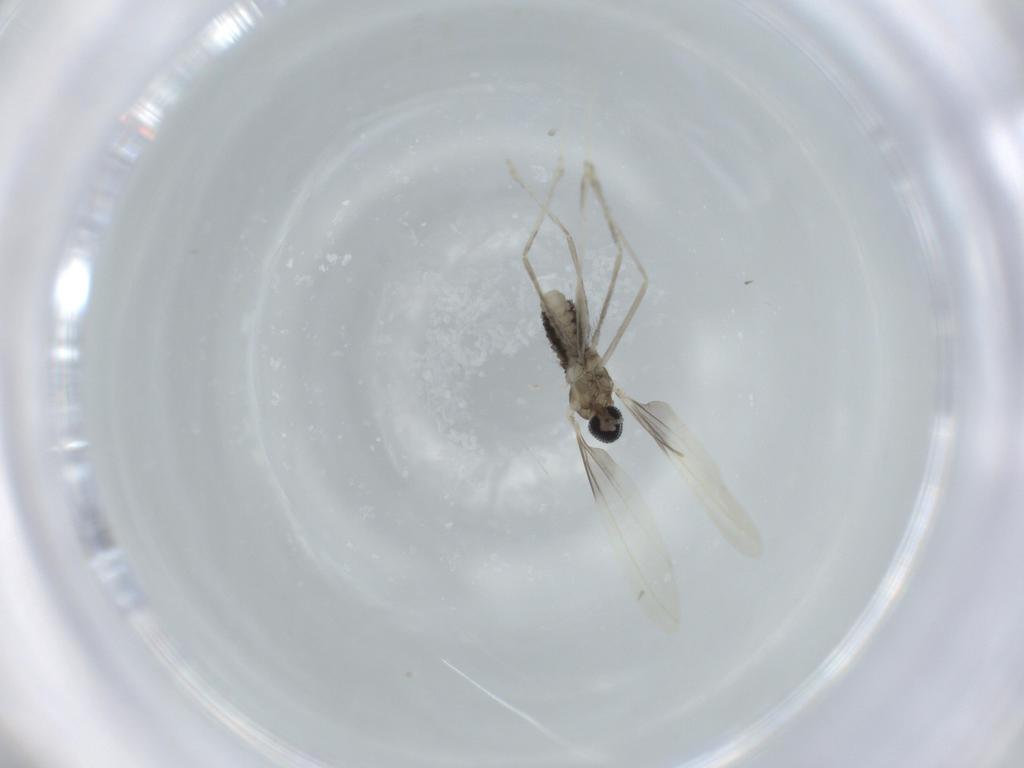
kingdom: Animalia
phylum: Arthropoda
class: Insecta
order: Diptera
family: Cecidomyiidae
